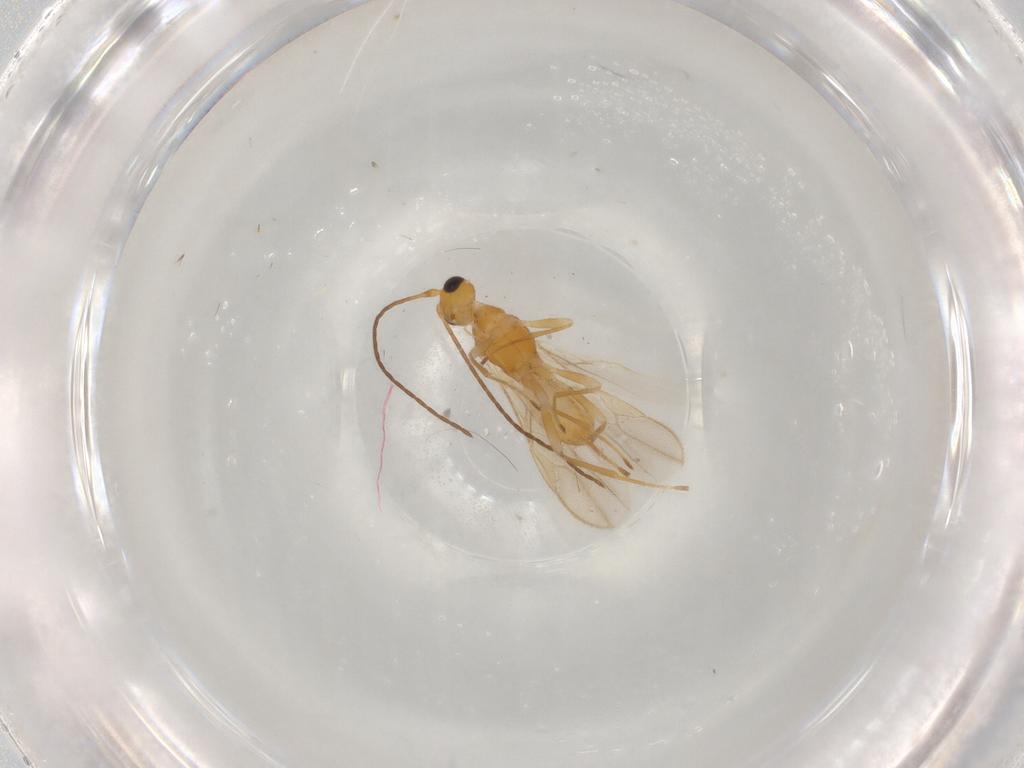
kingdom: Animalia
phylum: Arthropoda
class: Insecta
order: Hymenoptera
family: Braconidae
